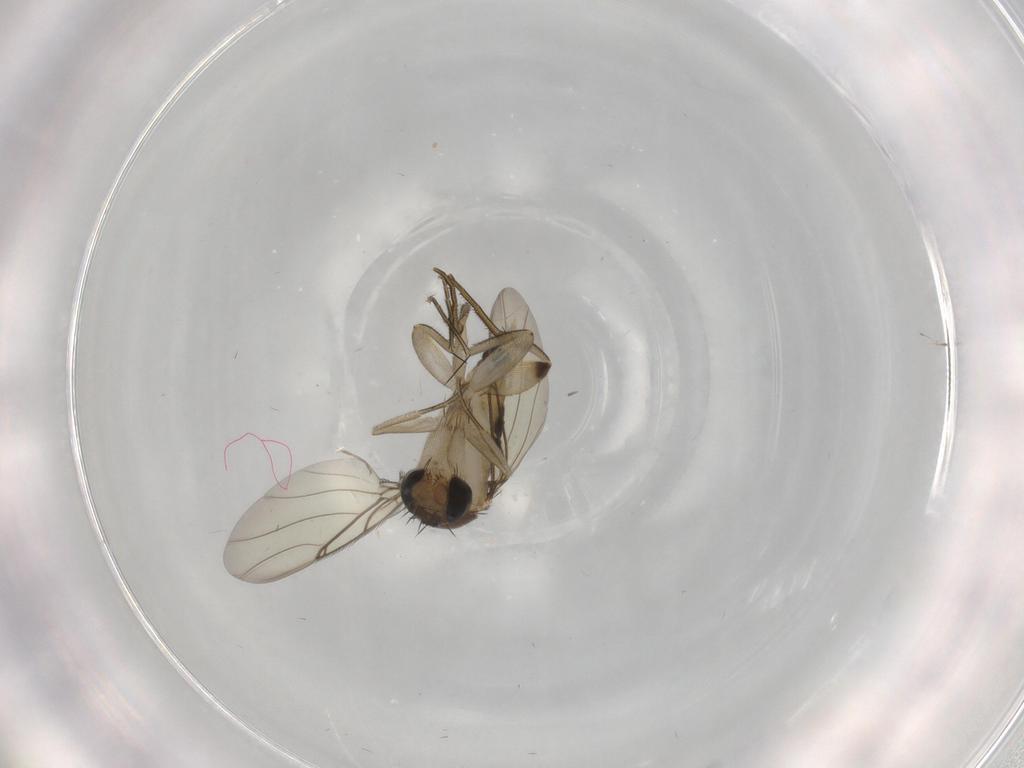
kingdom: Animalia
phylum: Arthropoda
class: Insecta
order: Diptera
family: Phoridae
